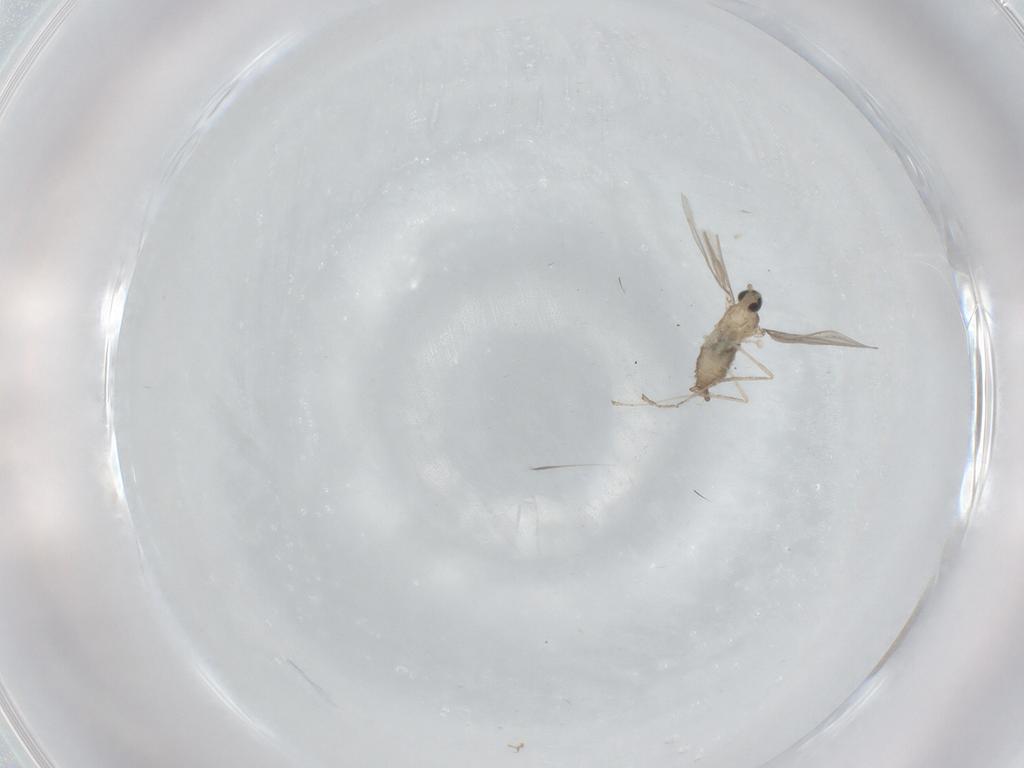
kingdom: Animalia
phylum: Arthropoda
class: Insecta
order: Diptera
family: Cecidomyiidae
